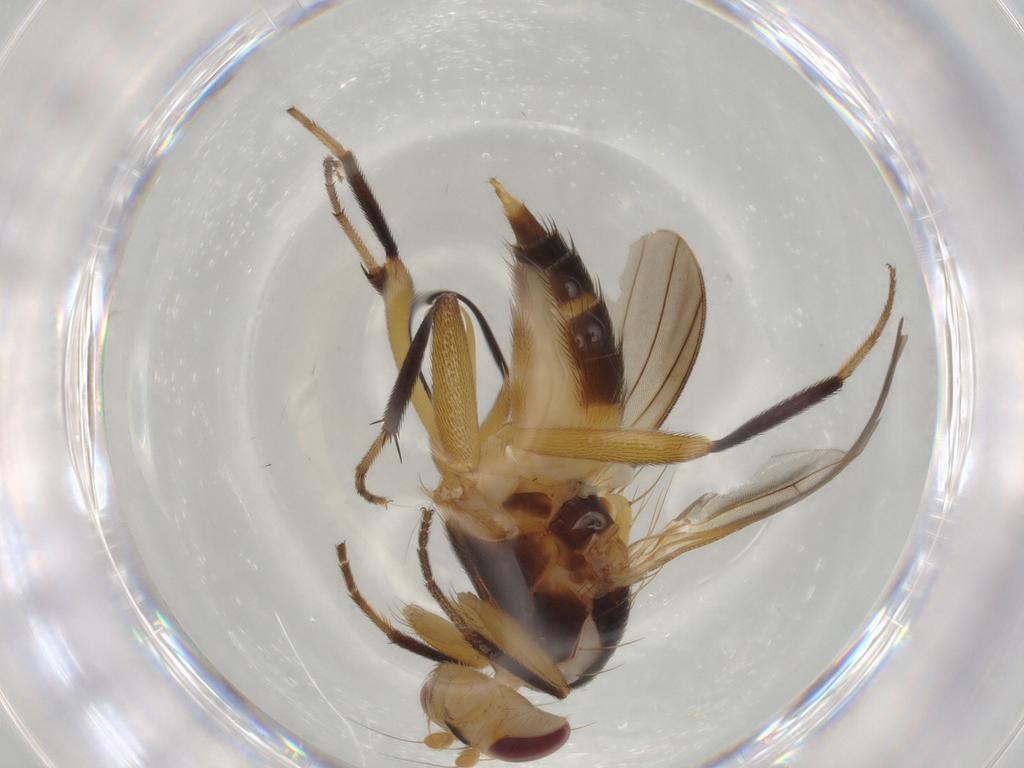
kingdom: Animalia
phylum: Arthropoda
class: Insecta
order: Diptera
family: Heleomyzidae
